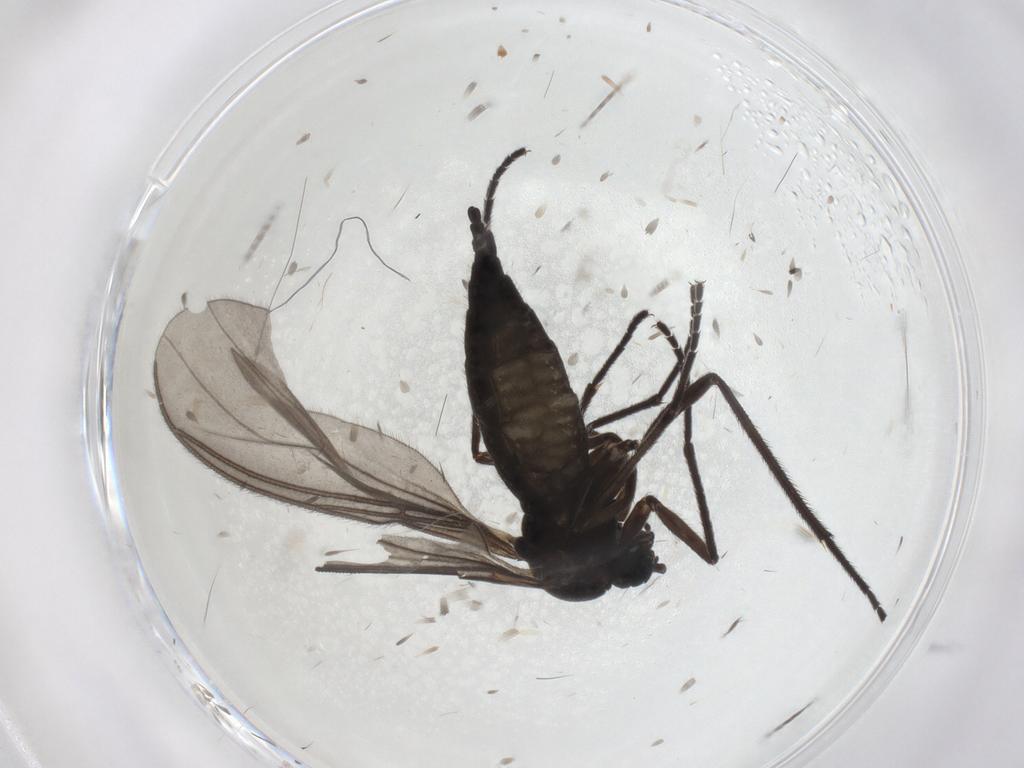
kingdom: Animalia
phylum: Arthropoda
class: Insecta
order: Diptera
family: Sciaridae
